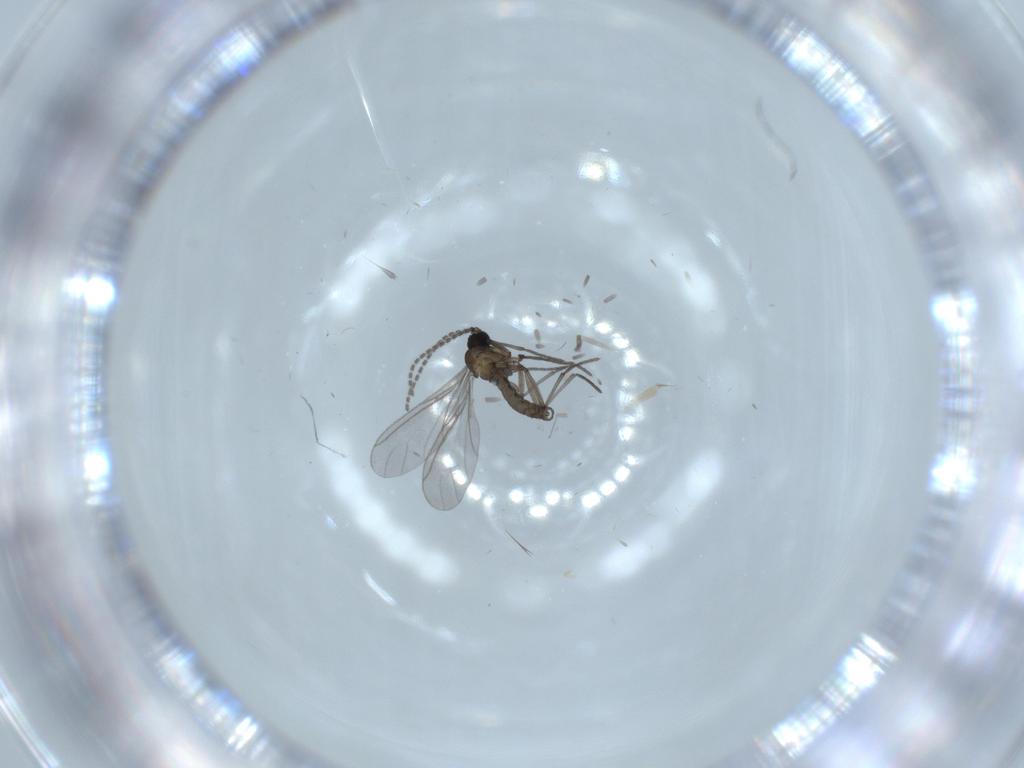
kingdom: Animalia
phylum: Arthropoda
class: Insecta
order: Diptera
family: Sciaridae
